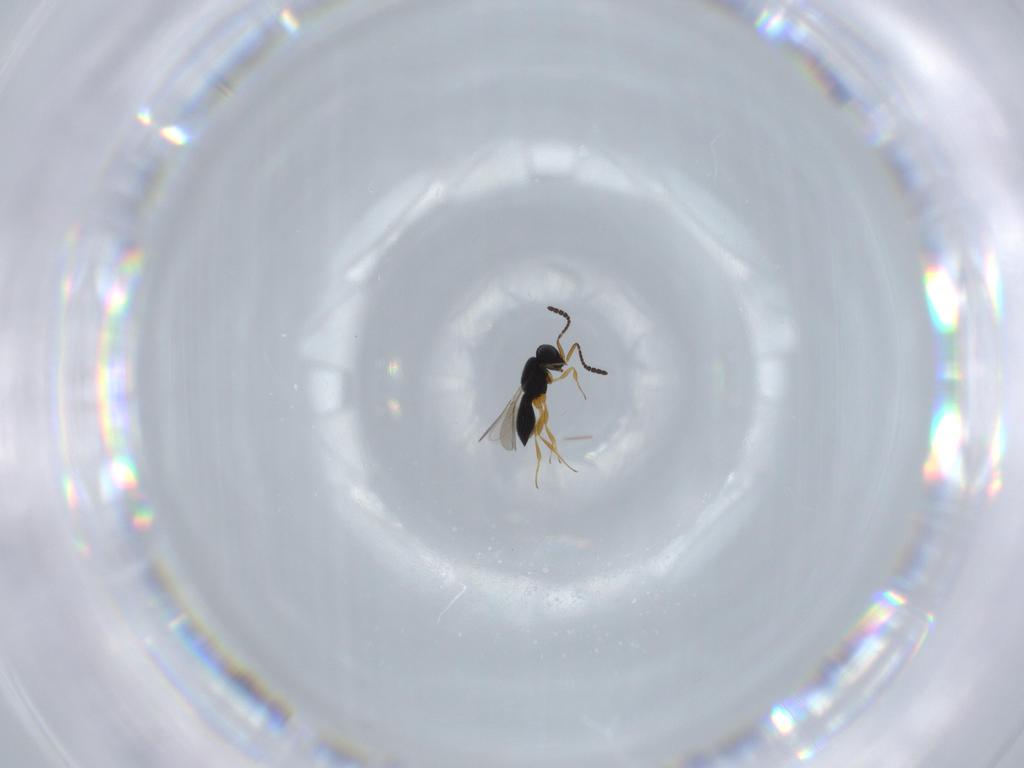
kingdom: Animalia
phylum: Arthropoda
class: Insecta
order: Hymenoptera
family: Scelionidae
